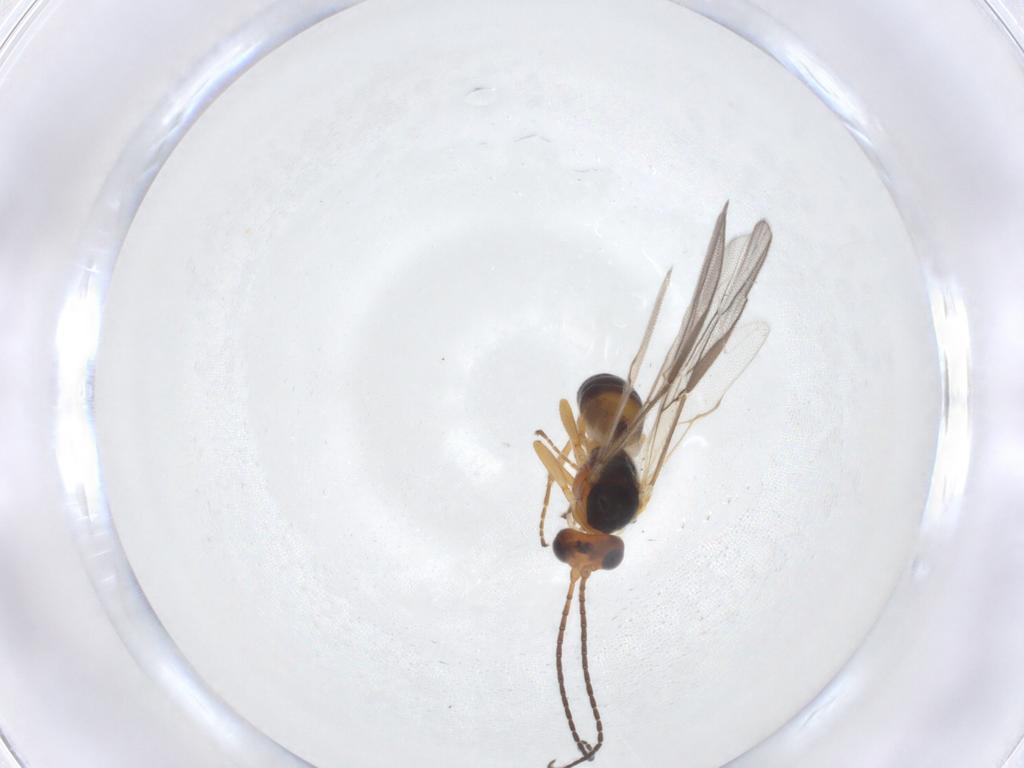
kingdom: Animalia
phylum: Arthropoda
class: Insecta
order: Hymenoptera
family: Braconidae
